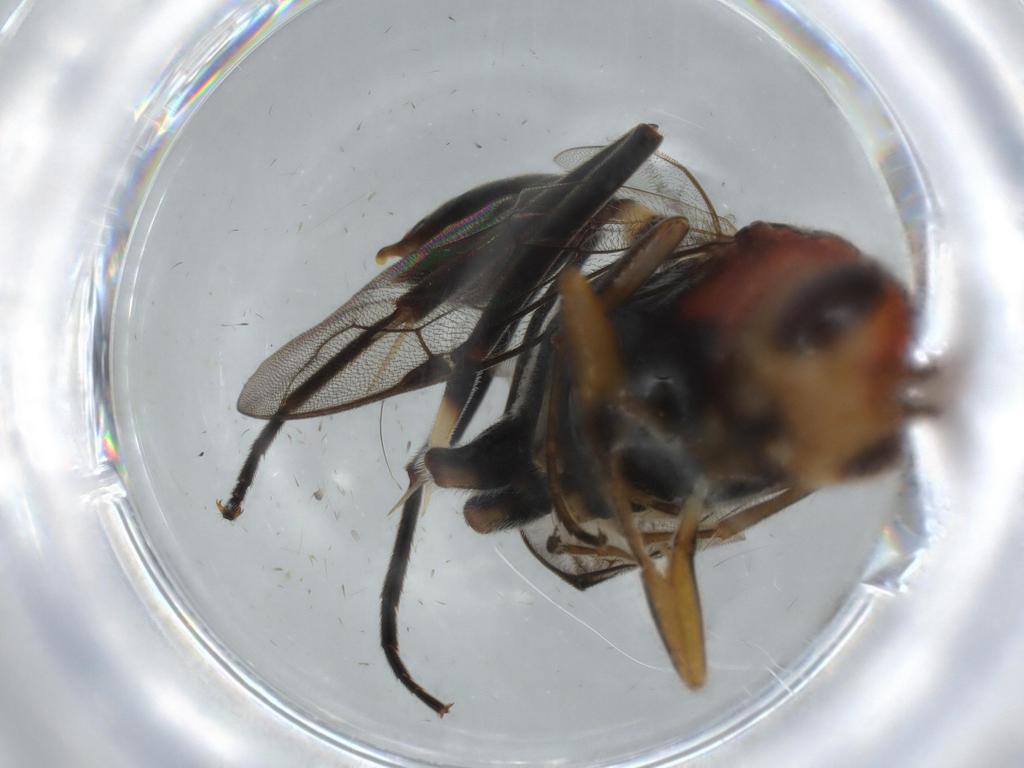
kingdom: Animalia
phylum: Arthropoda
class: Insecta
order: Hymenoptera
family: Evaniidae
